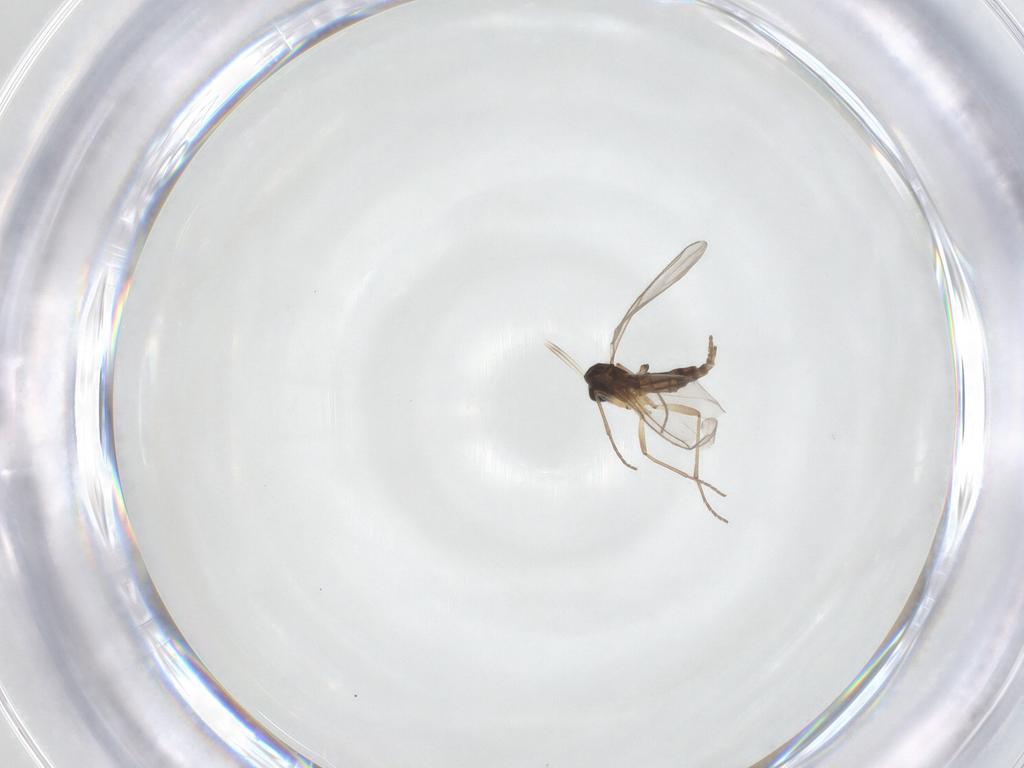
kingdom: Animalia
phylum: Arthropoda
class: Insecta
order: Diptera
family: Sciaridae
